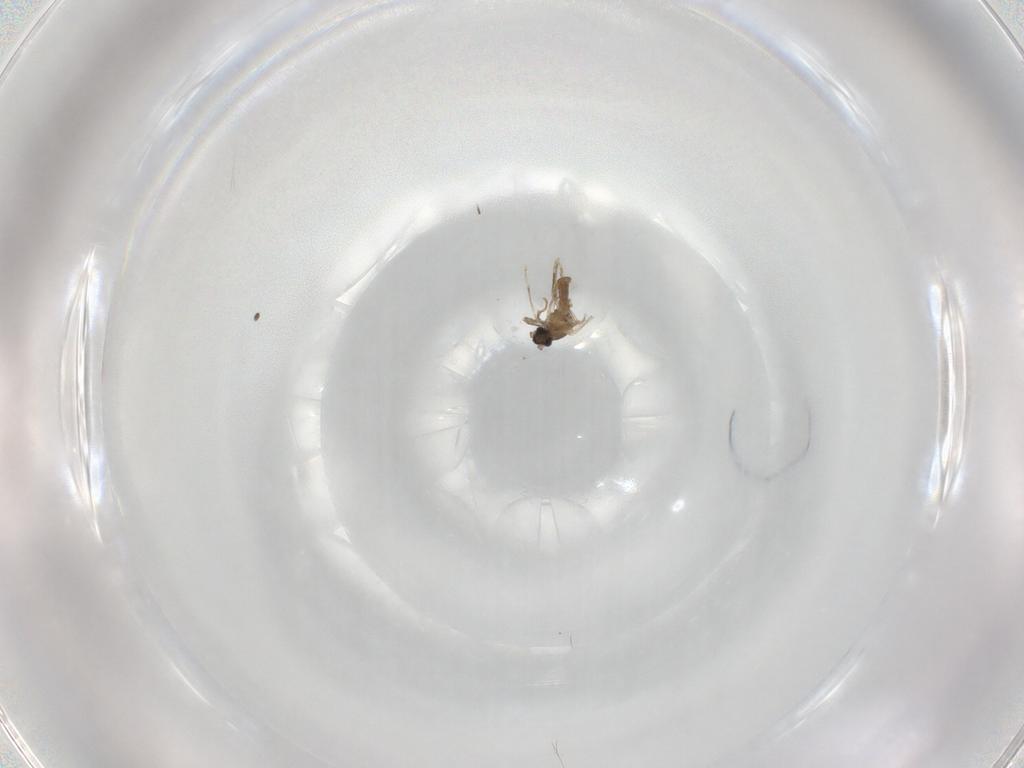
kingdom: Animalia
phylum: Arthropoda
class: Insecta
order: Diptera
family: Cecidomyiidae
